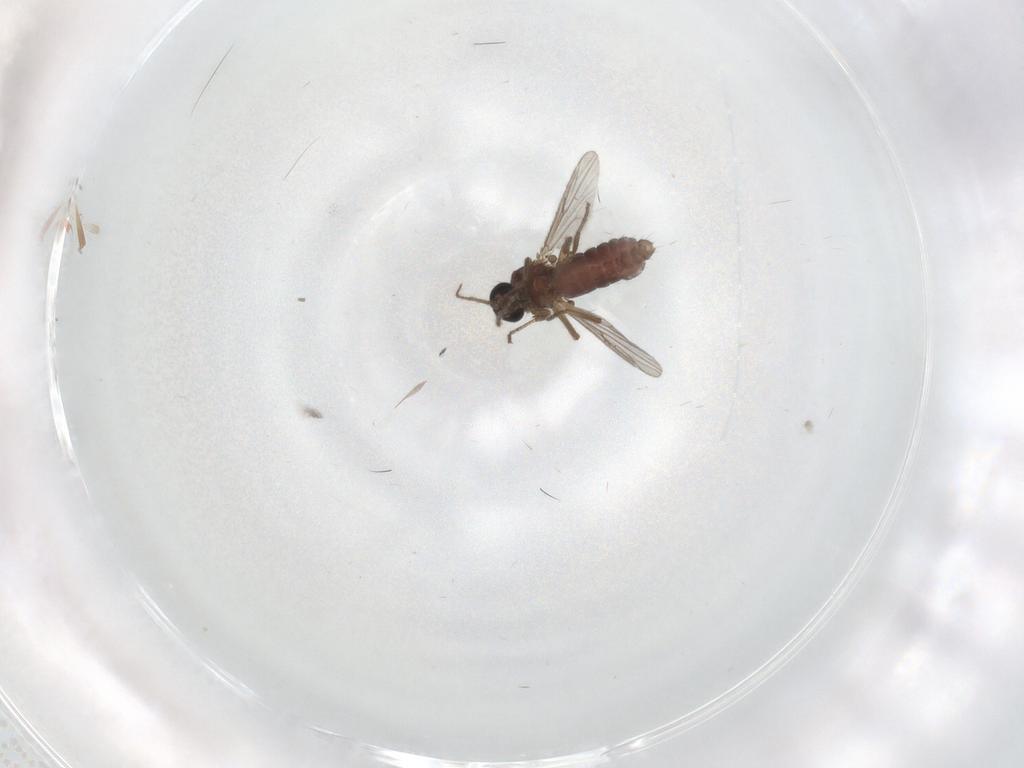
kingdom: Animalia
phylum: Arthropoda
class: Insecta
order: Diptera
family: Ceratopogonidae
